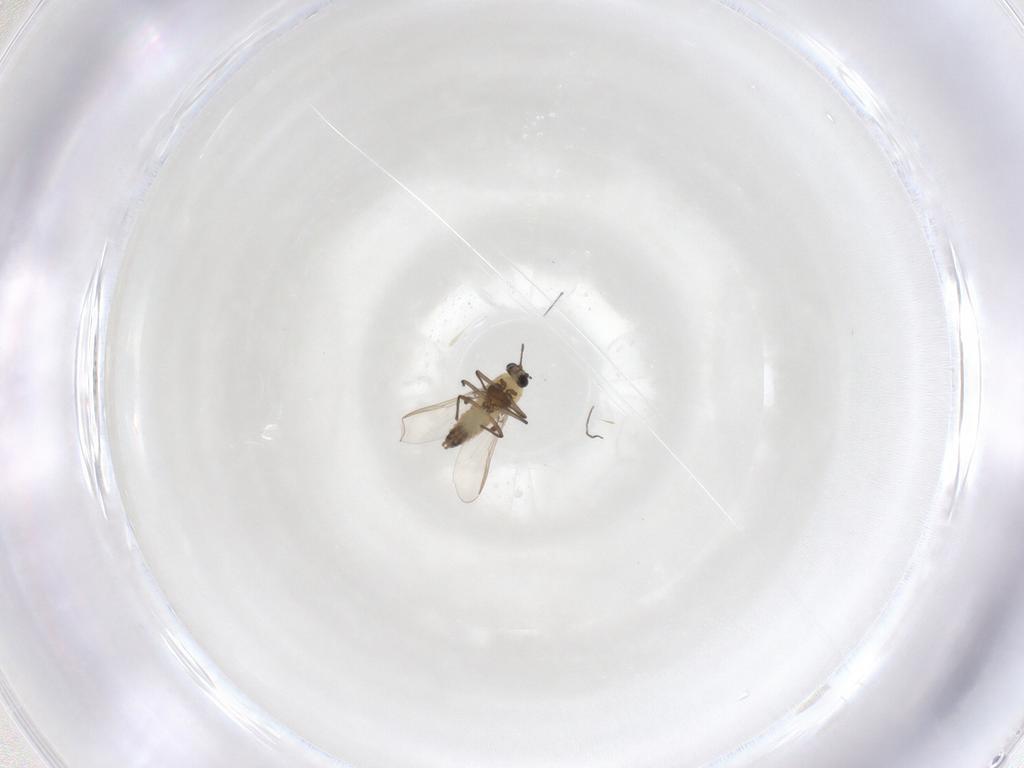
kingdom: Animalia
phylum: Arthropoda
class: Insecta
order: Diptera
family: Chironomidae
